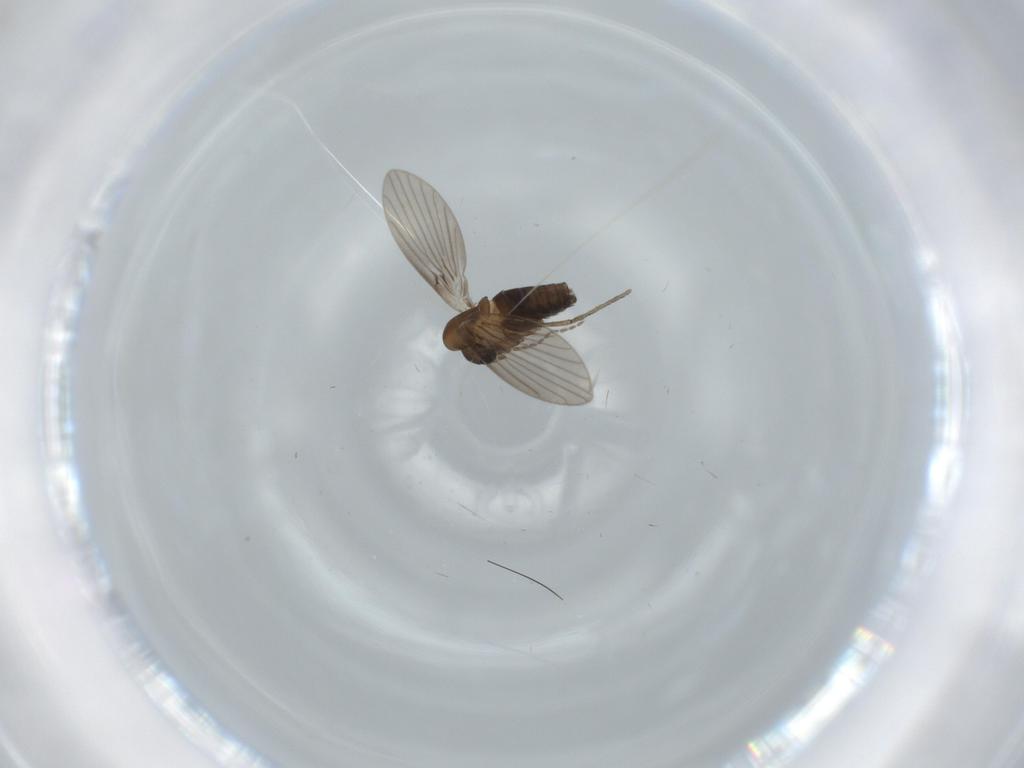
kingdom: Animalia
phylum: Arthropoda
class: Insecta
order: Diptera
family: Psychodidae
